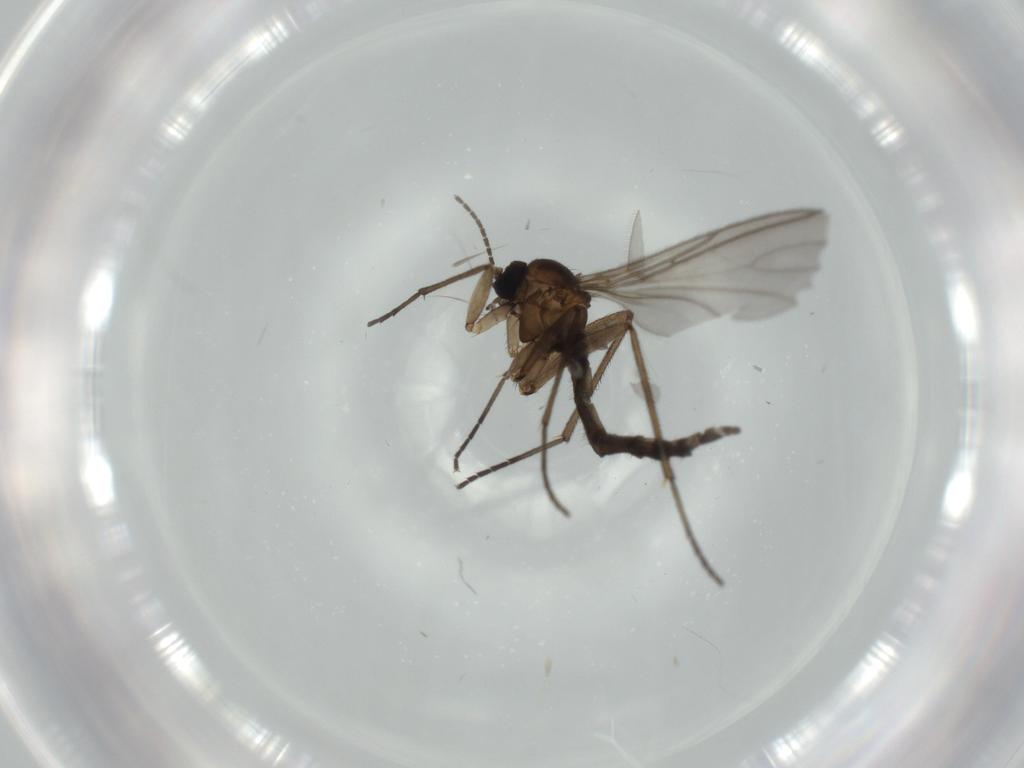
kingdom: Animalia
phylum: Arthropoda
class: Insecta
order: Diptera
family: Sciaridae
